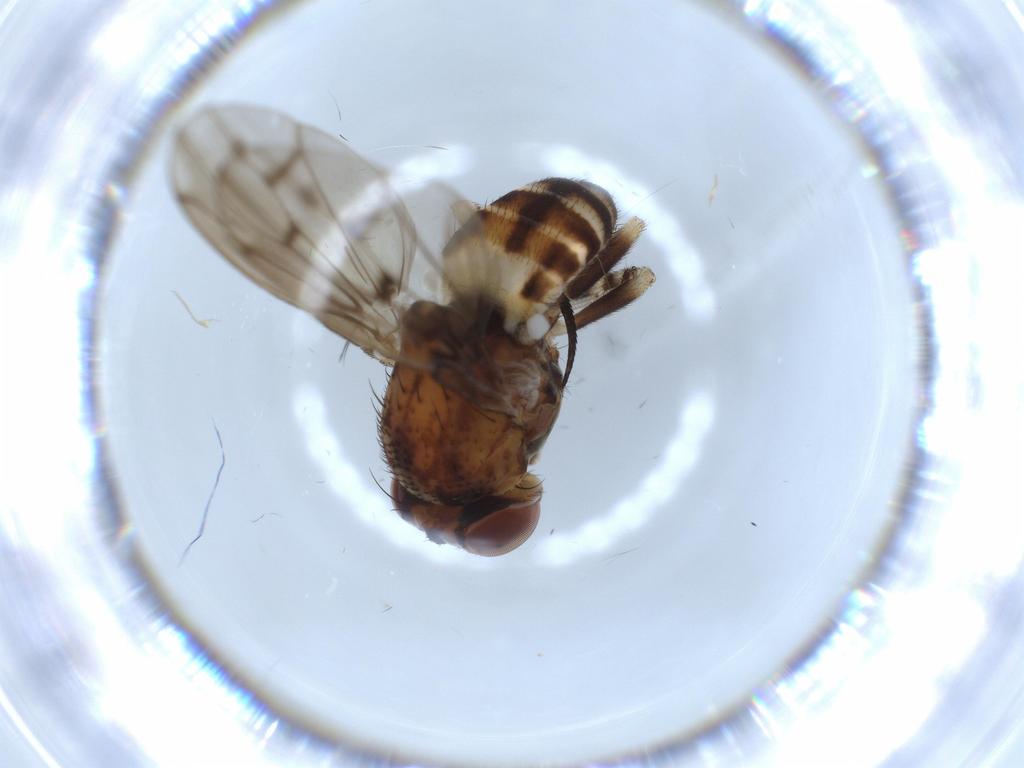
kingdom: Animalia
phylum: Arthropoda
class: Insecta
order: Diptera
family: Drosophilidae
